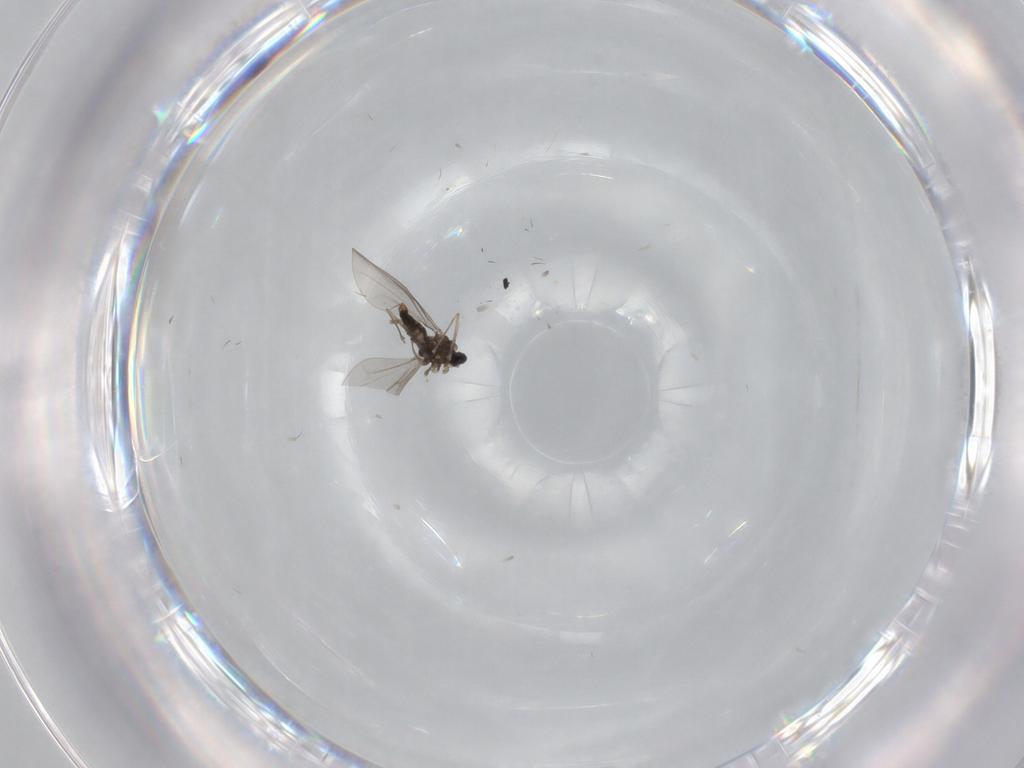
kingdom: Animalia
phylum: Arthropoda
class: Insecta
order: Diptera
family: Cecidomyiidae
